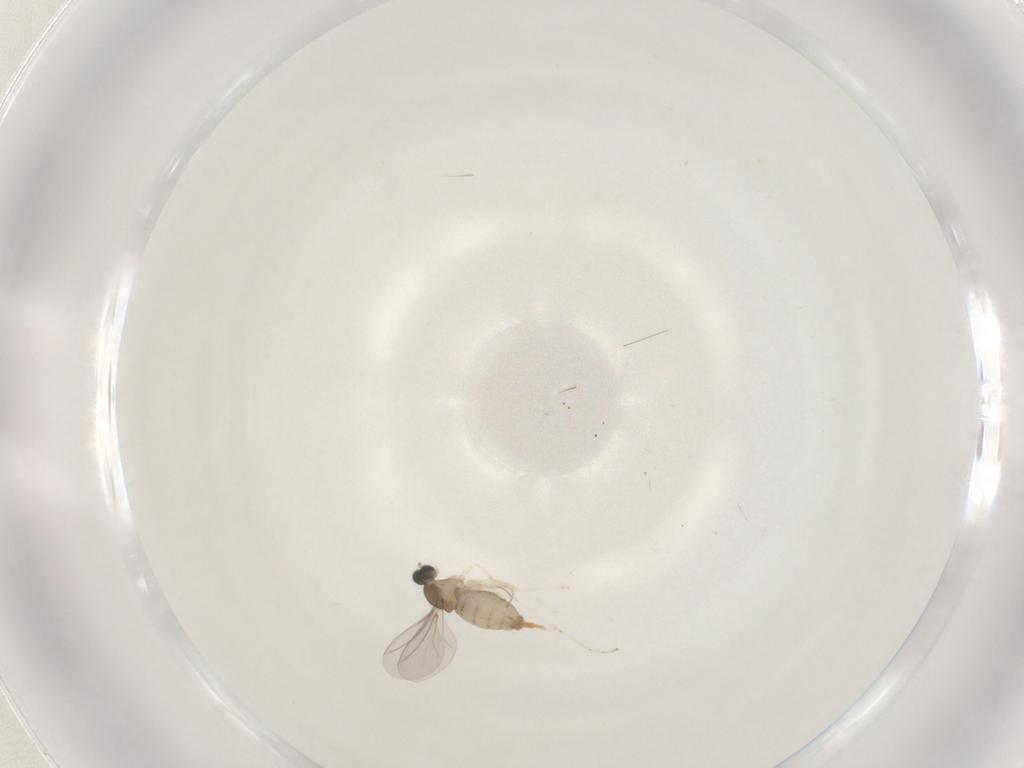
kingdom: Animalia
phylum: Arthropoda
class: Insecta
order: Diptera
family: Cecidomyiidae
